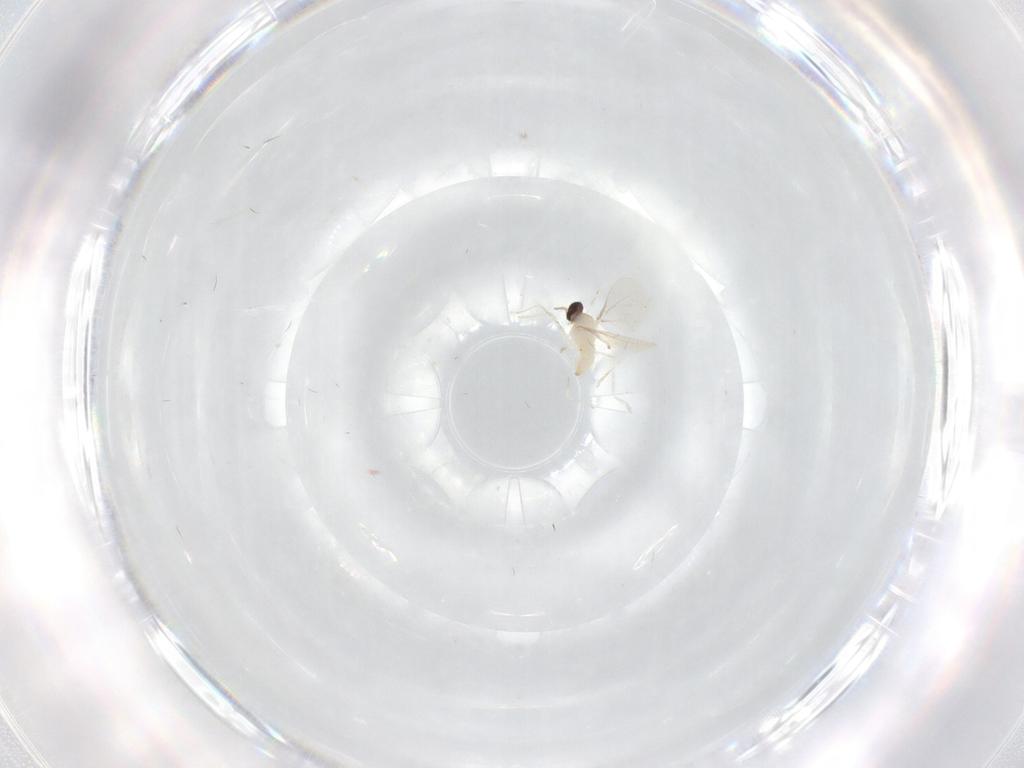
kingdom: Animalia
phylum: Arthropoda
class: Insecta
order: Diptera
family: Cecidomyiidae
